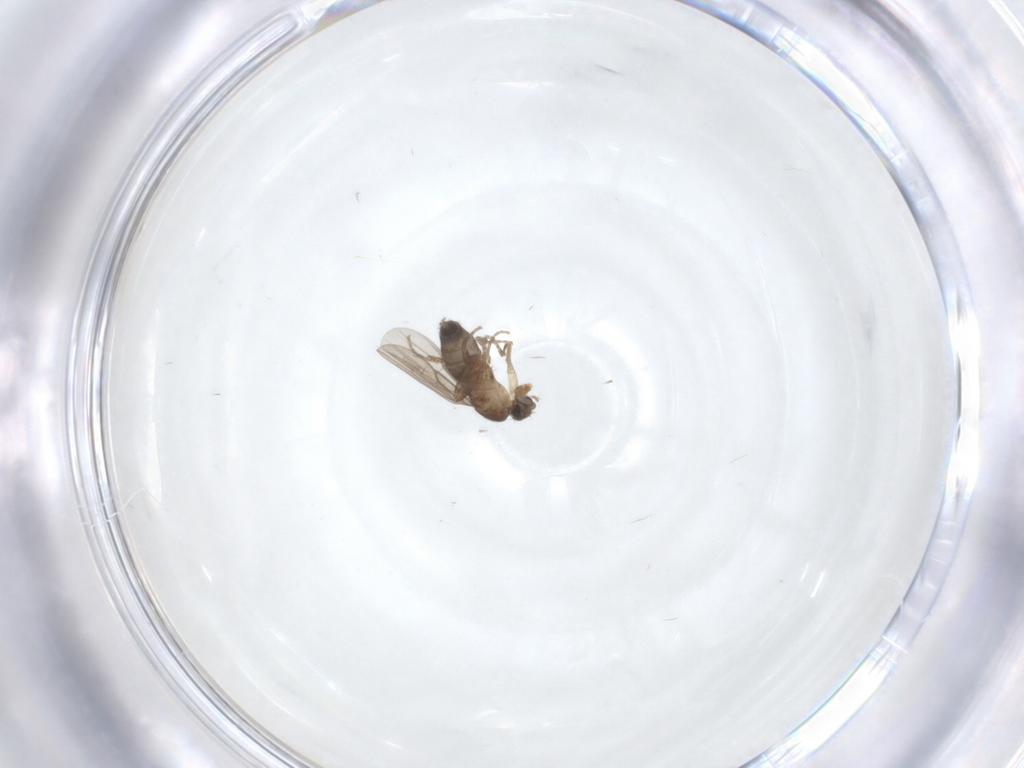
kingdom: Animalia
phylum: Arthropoda
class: Insecta
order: Diptera
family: Phoridae
